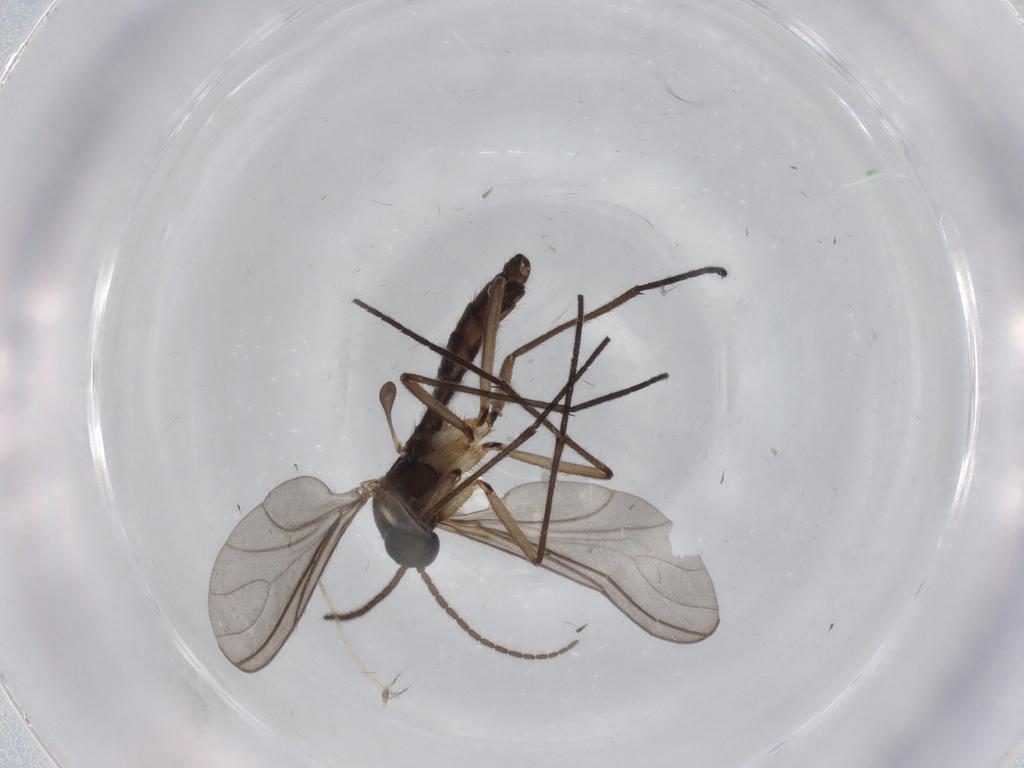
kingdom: Animalia
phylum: Arthropoda
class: Insecta
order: Diptera
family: Sciaridae
